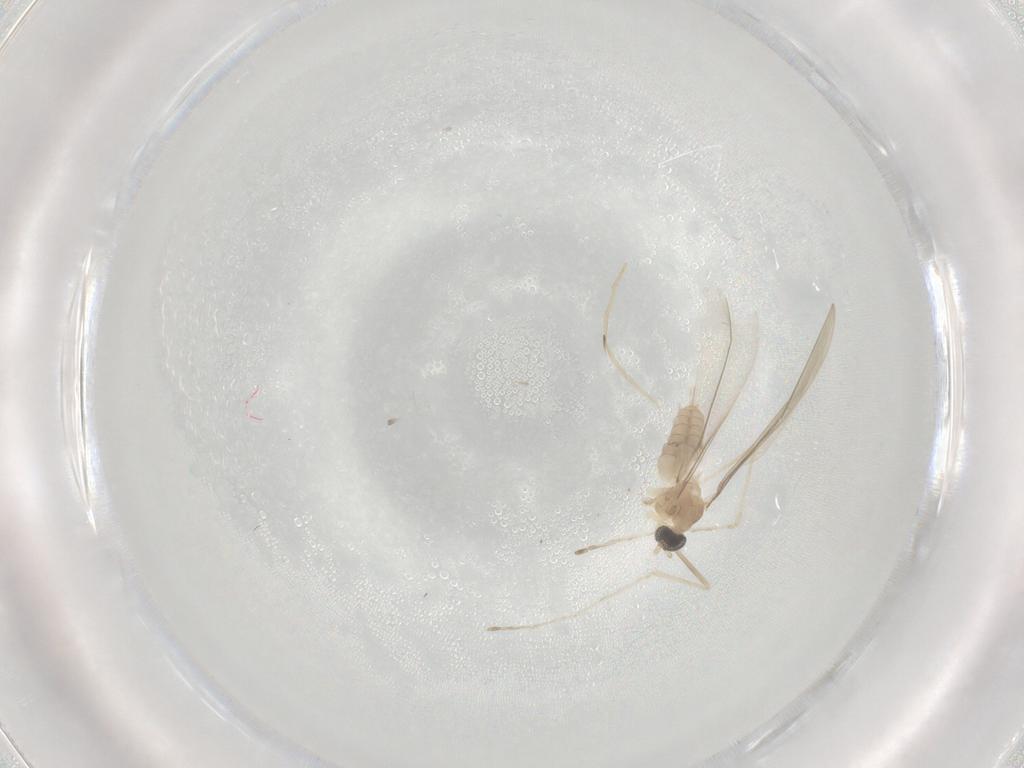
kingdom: Animalia
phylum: Arthropoda
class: Insecta
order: Diptera
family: Cecidomyiidae
